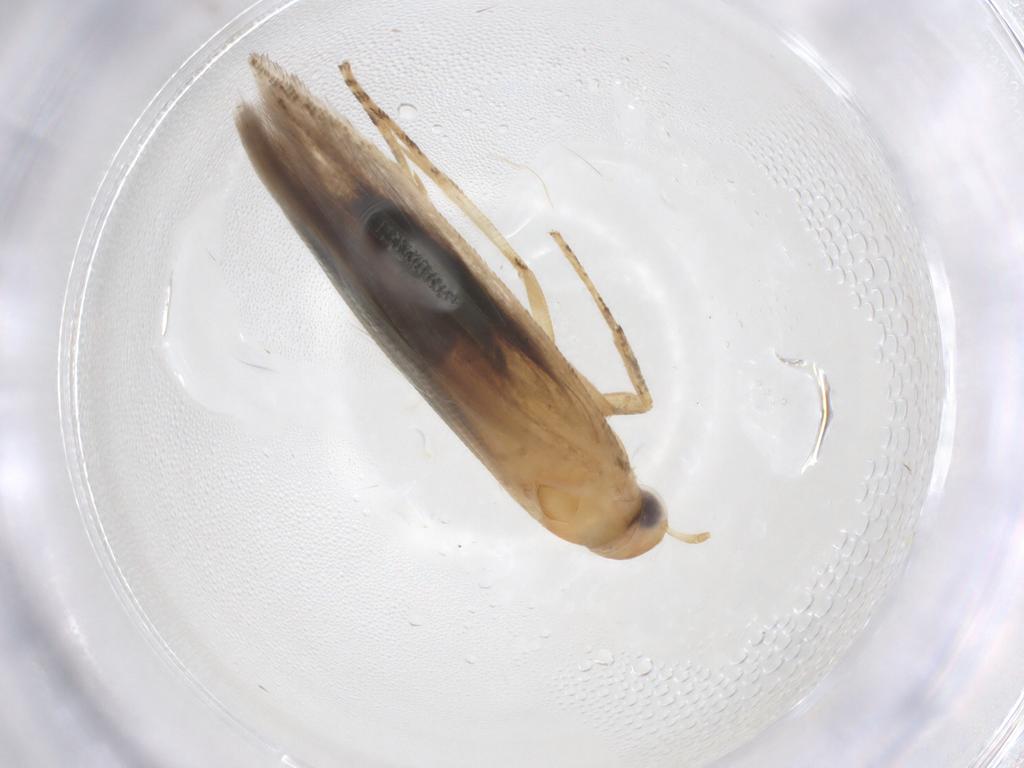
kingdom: Animalia
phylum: Arthropoda
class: Insecta
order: Lepidoptera
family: Momphidae
